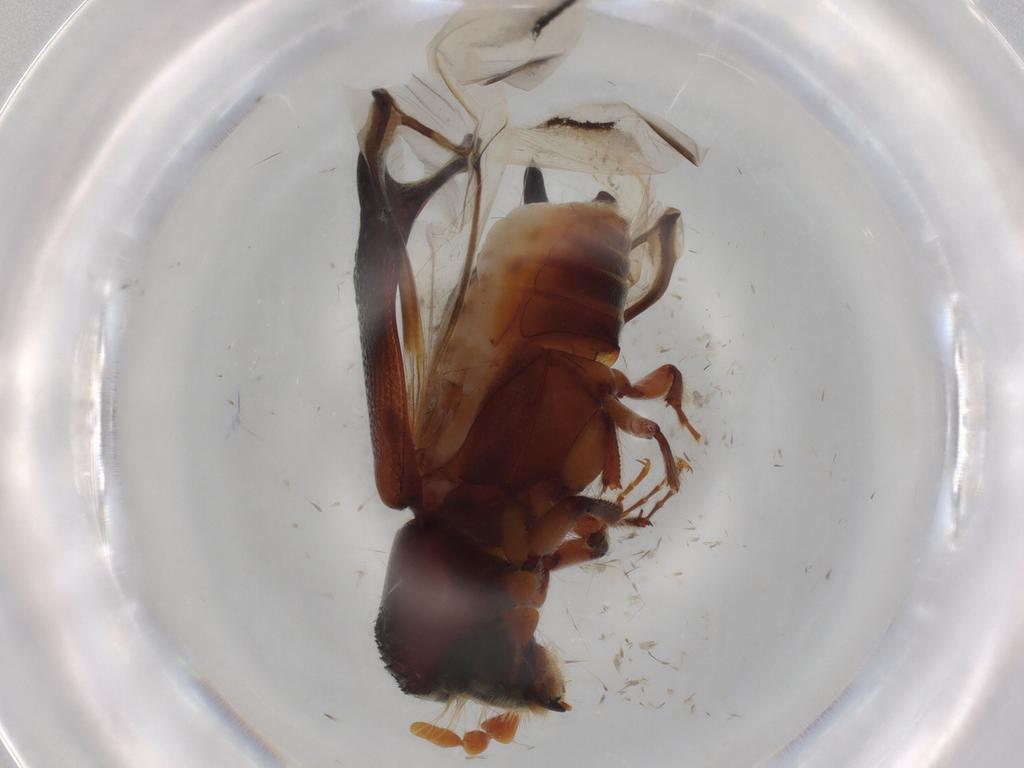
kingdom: Animalia
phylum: Arthropoda
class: Insecta
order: Coleoptera
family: Bostrichidae
